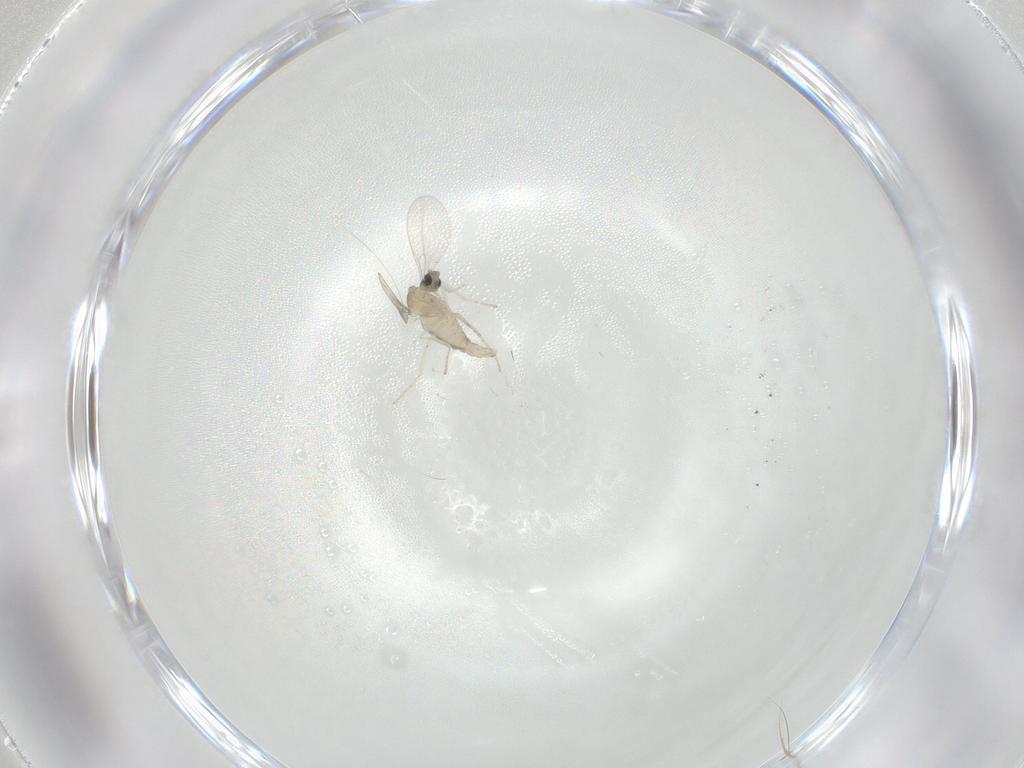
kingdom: Animalia
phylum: Arthropoda
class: Insecta
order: Diptera
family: Cecidomyiidae
